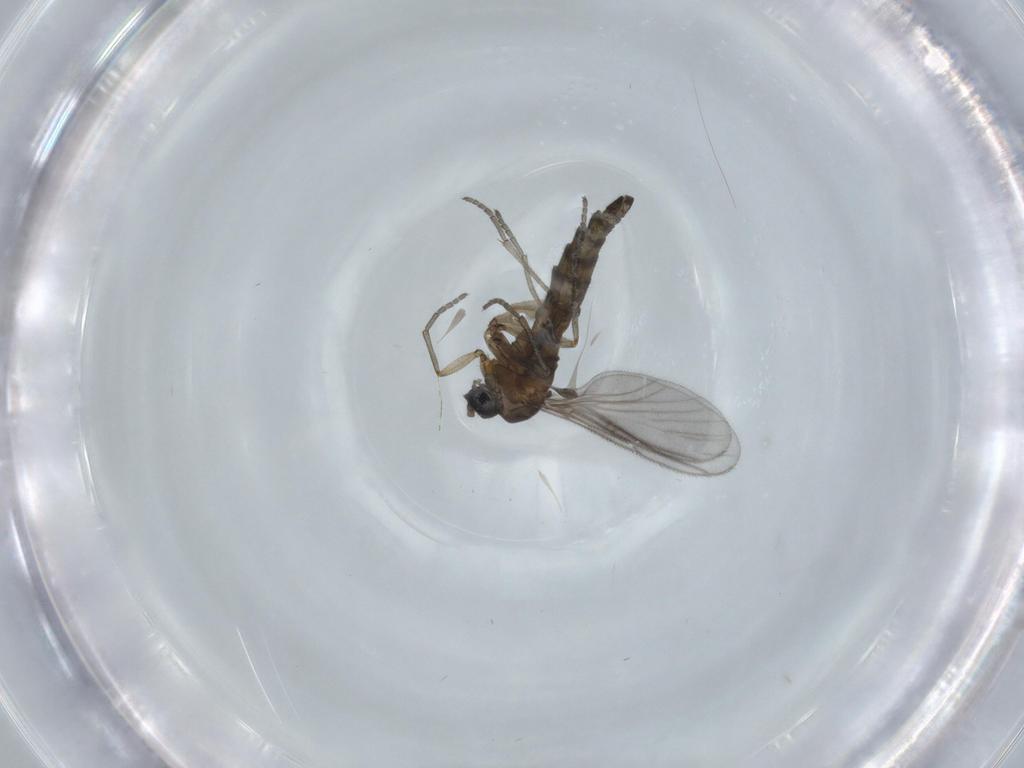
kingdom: Animalia
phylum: Arthropoda
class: Insecta
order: Diptera
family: Sciaridae
